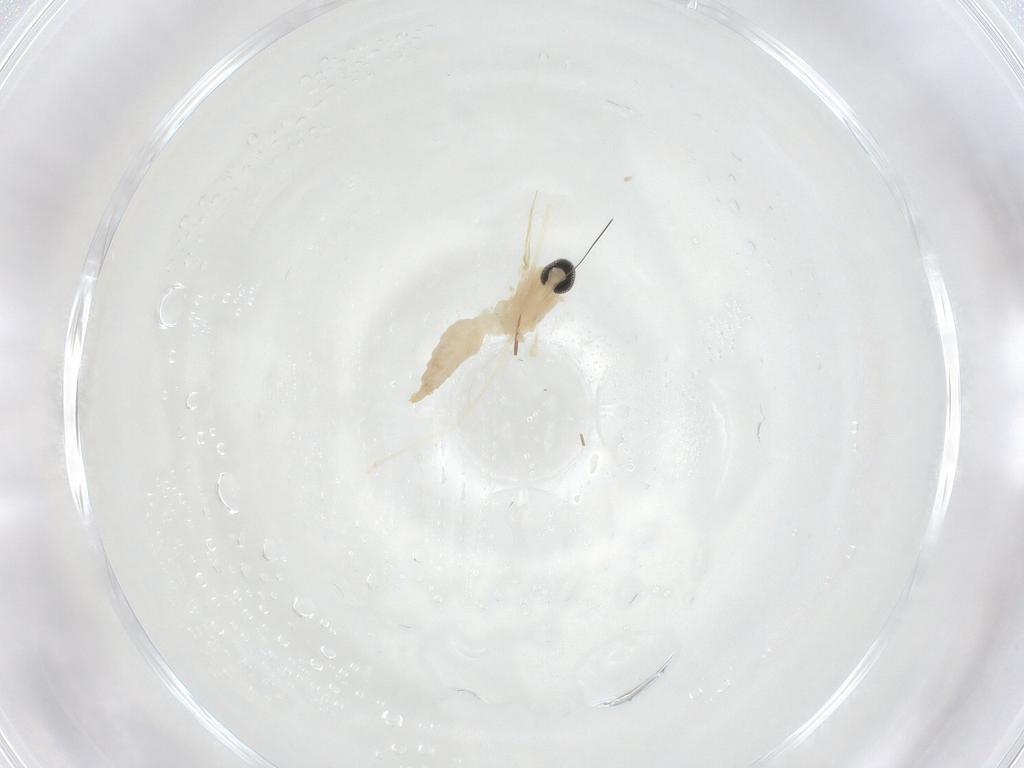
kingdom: Animalia
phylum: Arthropoda
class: Insecta
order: Diptera
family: Cecidomyiidae
